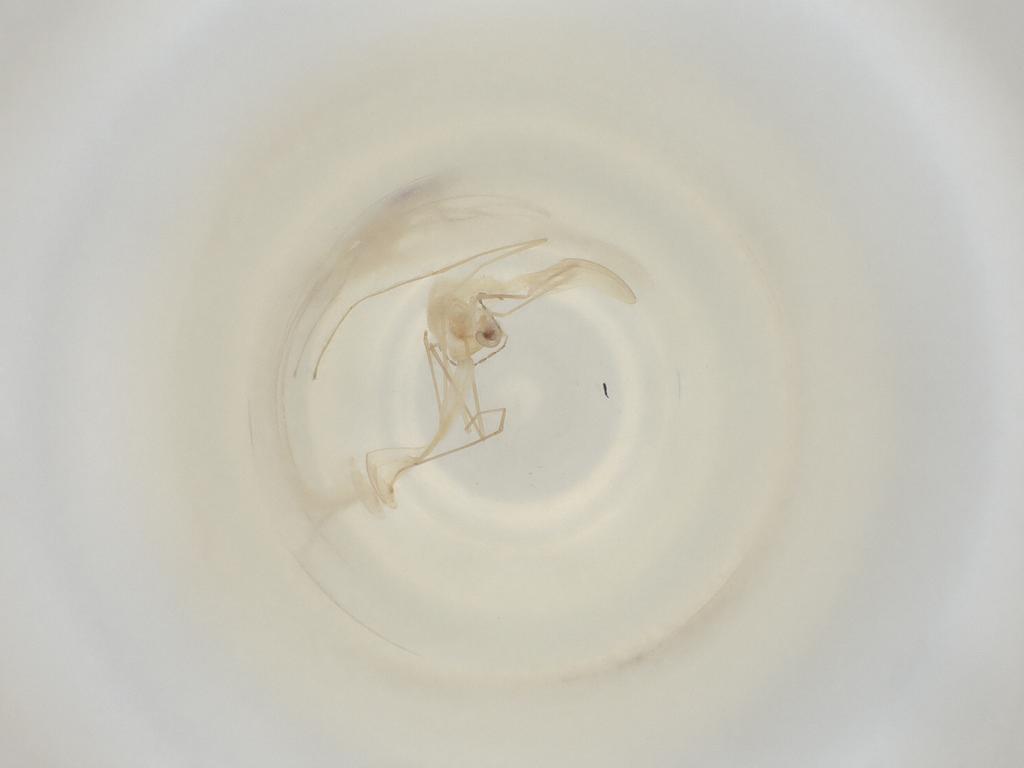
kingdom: Animalia
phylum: Arthropoda
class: Insecta
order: Diptera
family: Cecidomyiidae
